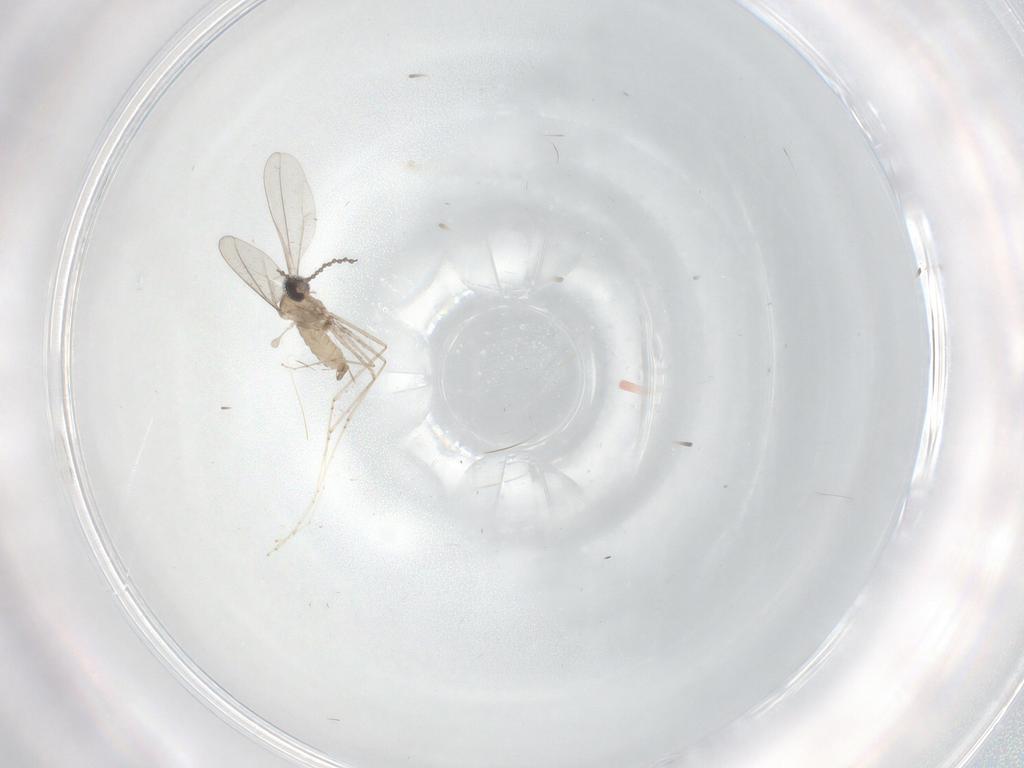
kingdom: Animalia
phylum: Arthropoda
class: Insecta
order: Diptera
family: Chironomidae
